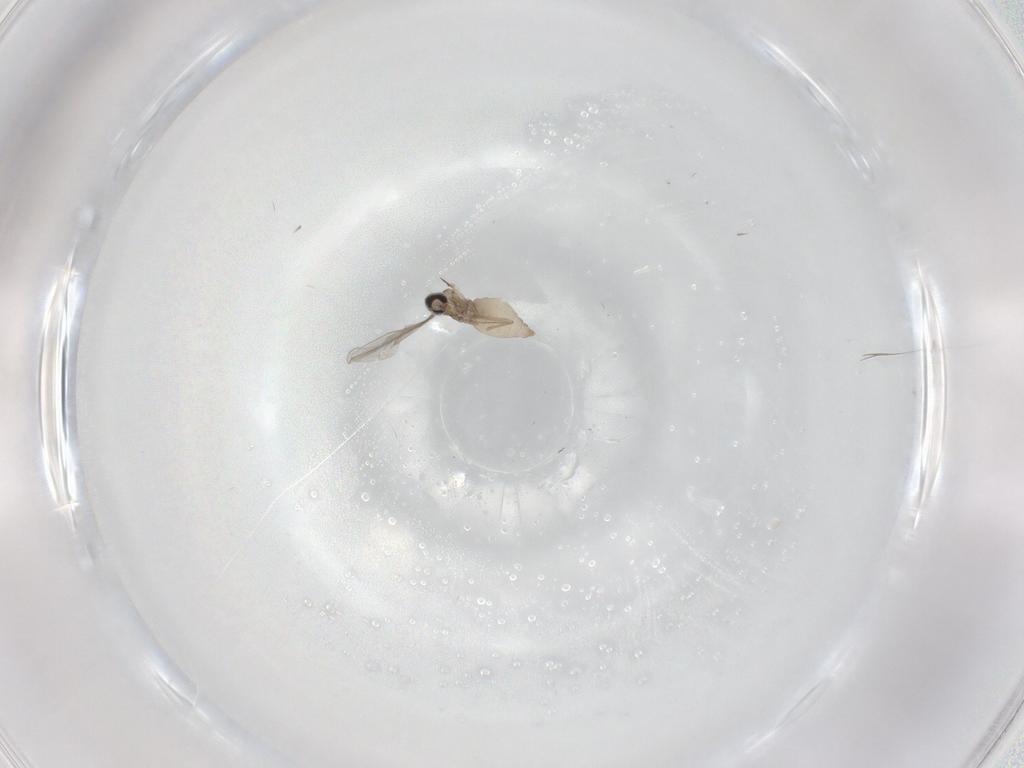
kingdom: Animalia
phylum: Arthropoda
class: Insecta
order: Diptera
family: Cecidomyiidae
